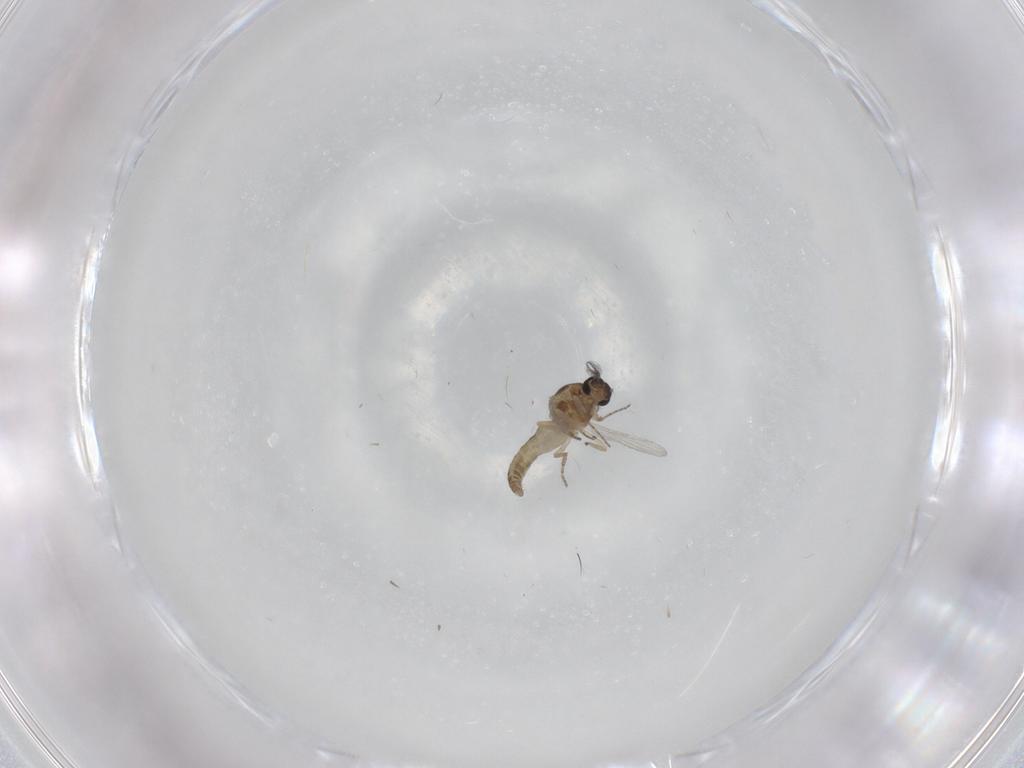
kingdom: Animalia
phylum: Arthropoda
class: Insecta
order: Diptera
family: Ceratopogonidae
